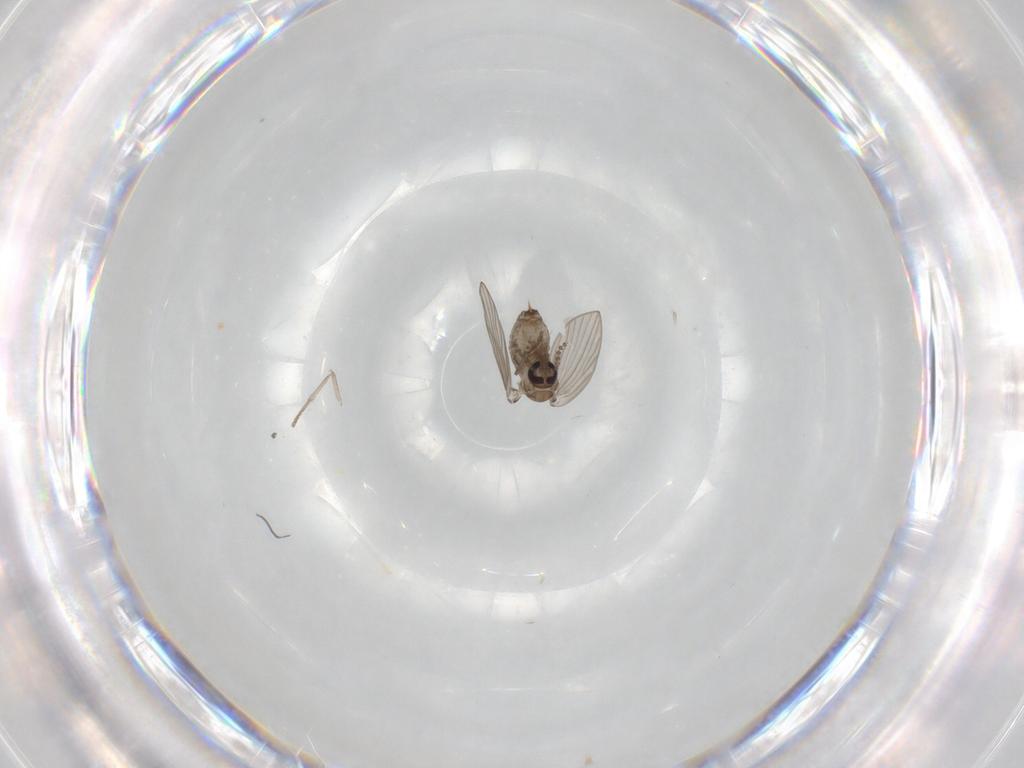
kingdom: Animalia
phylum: Arthropoda
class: Insecta
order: Diptera
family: Psychodidae
